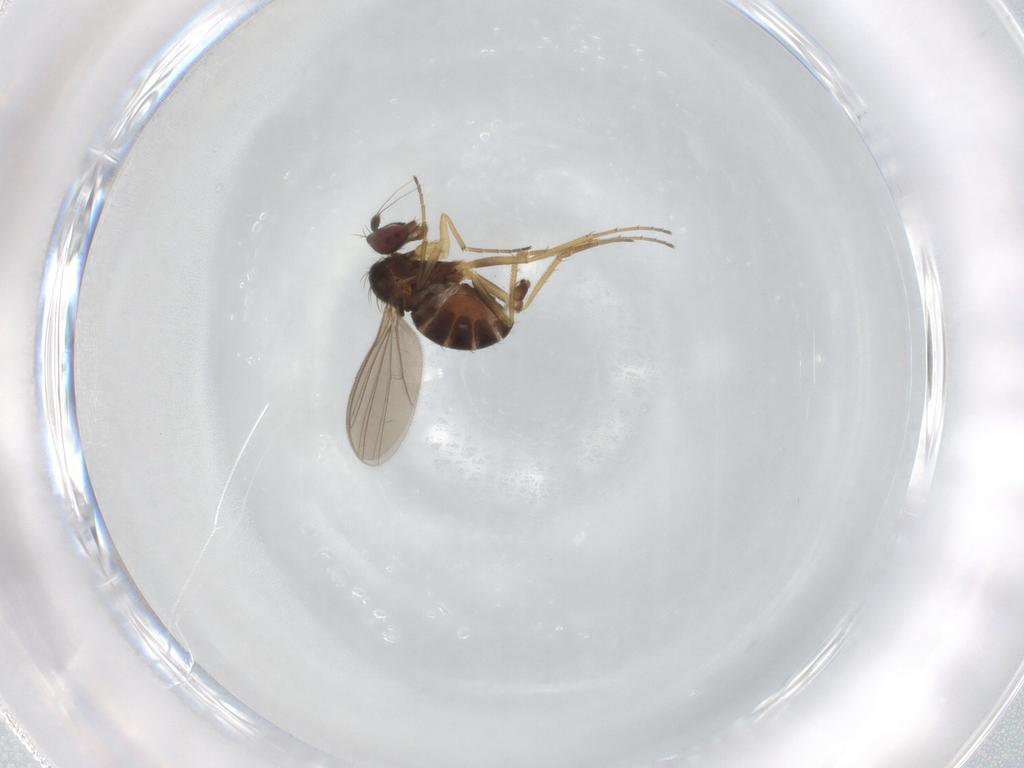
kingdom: Animalia
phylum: Arthropoda
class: Insecta
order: Diptera
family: Dolichopodidae
